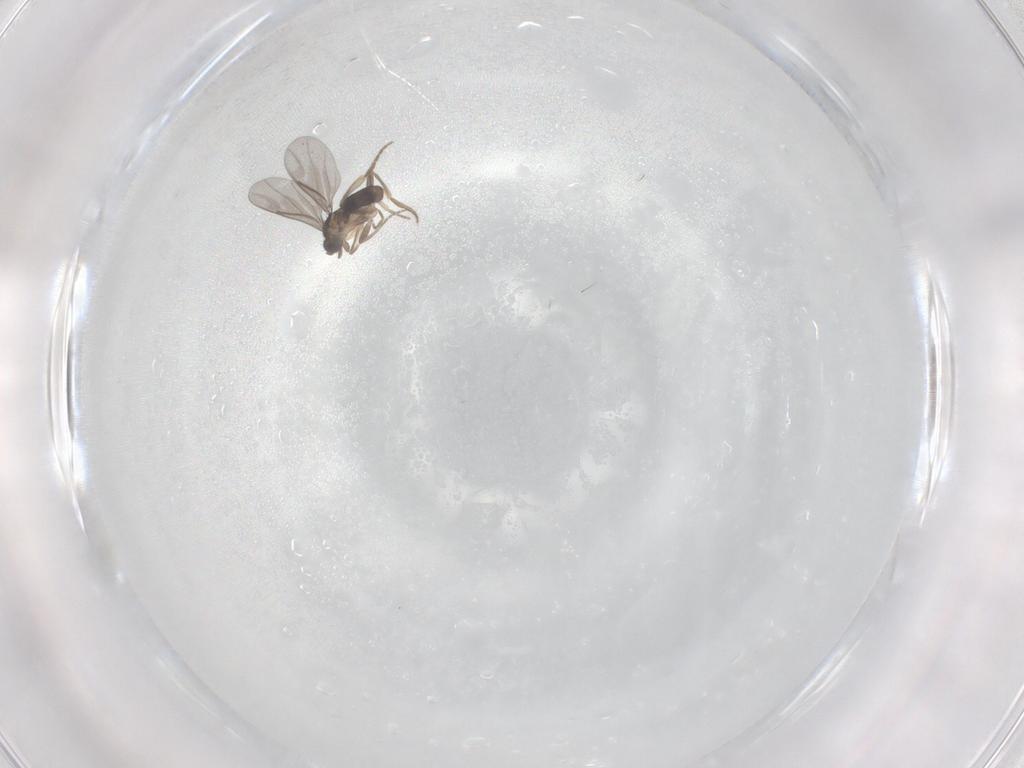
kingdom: Animalia
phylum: Arthropoda
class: Insecta
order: Diptera
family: Ceratopogonidae
